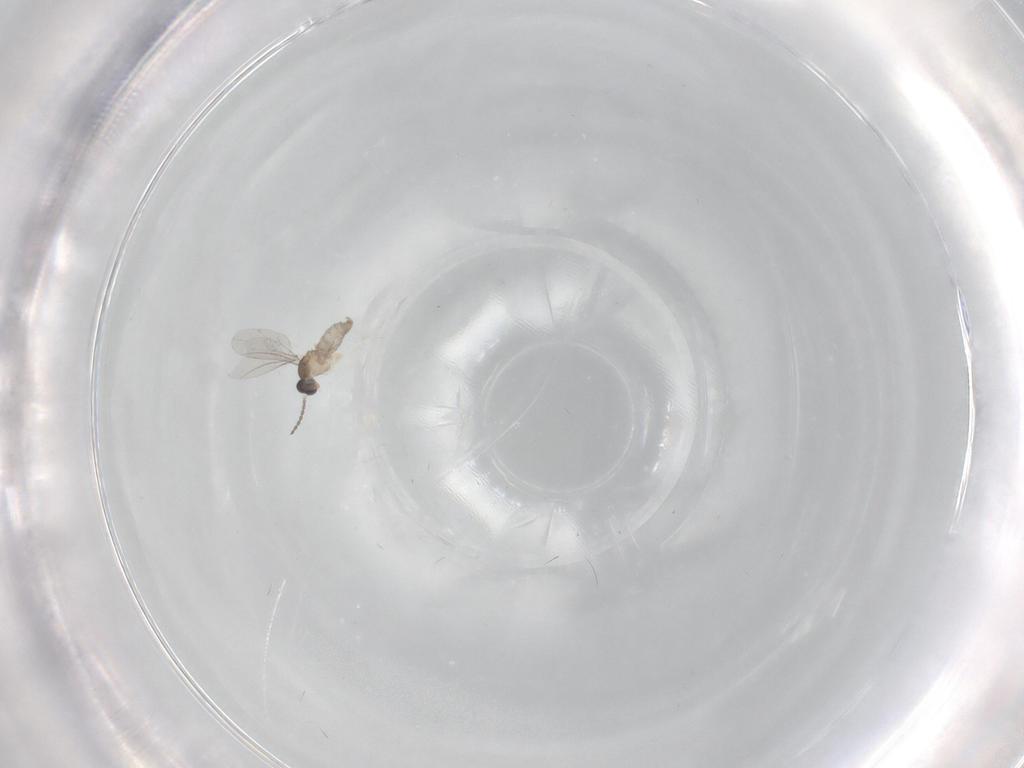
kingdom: Animalia
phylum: Arthropoda
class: Insecta
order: Diptera
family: Cecidomyiidae
